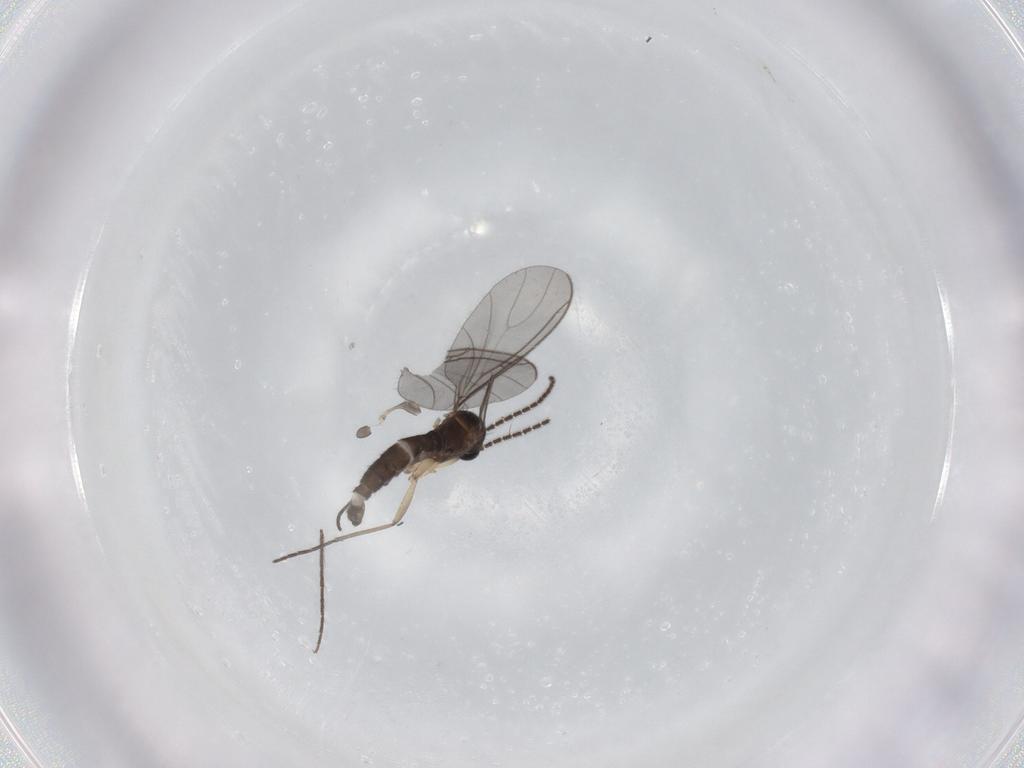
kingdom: Animalia
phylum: Arthropoda
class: Insecta
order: Diptera
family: Sciaridae
